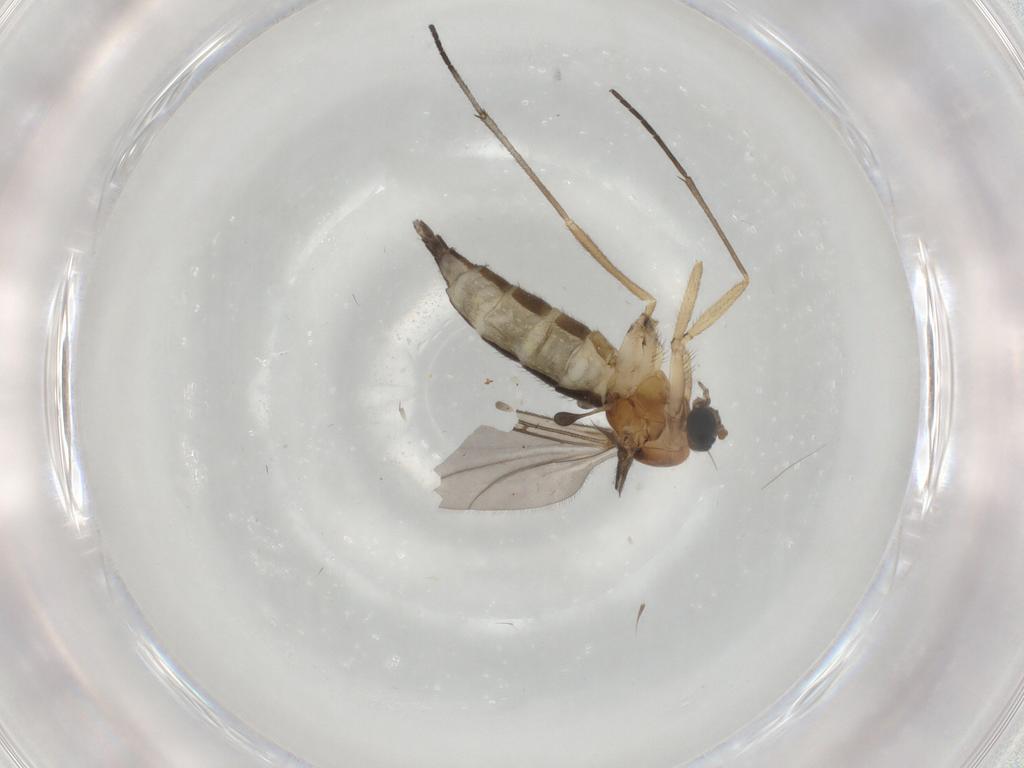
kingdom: Animalia
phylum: Arthropoda
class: Insecta
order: Diptera
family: Sciaridae
